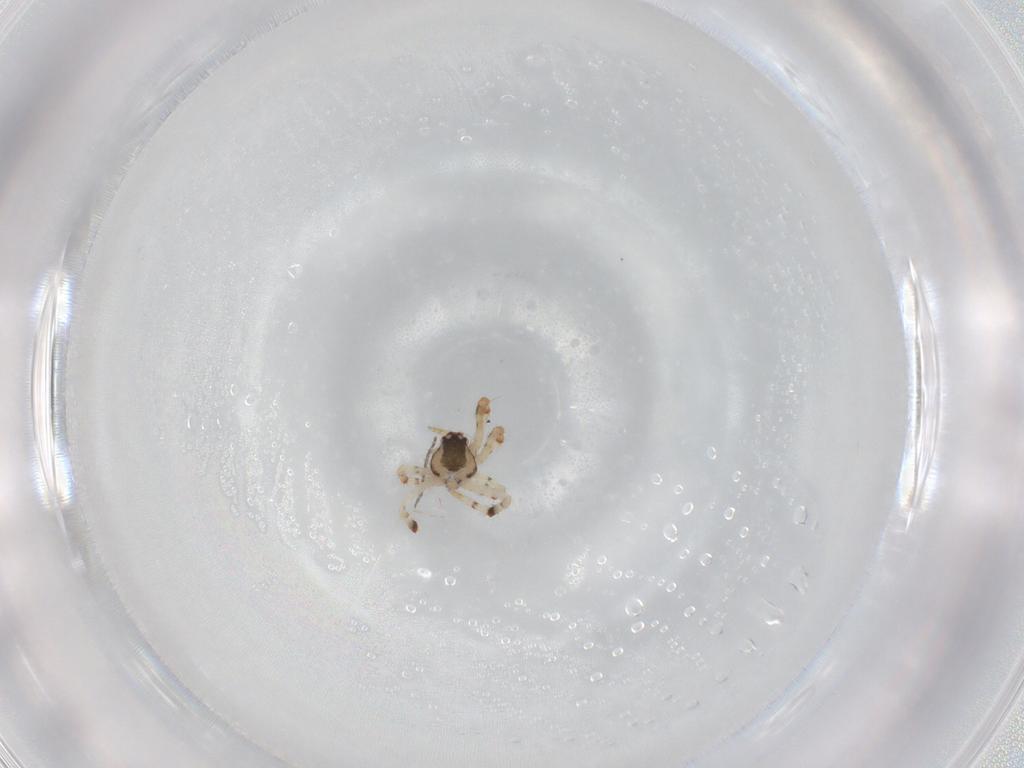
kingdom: Animalia
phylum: Arthropoda
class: Arachnida
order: Araneae
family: Theridiidae
